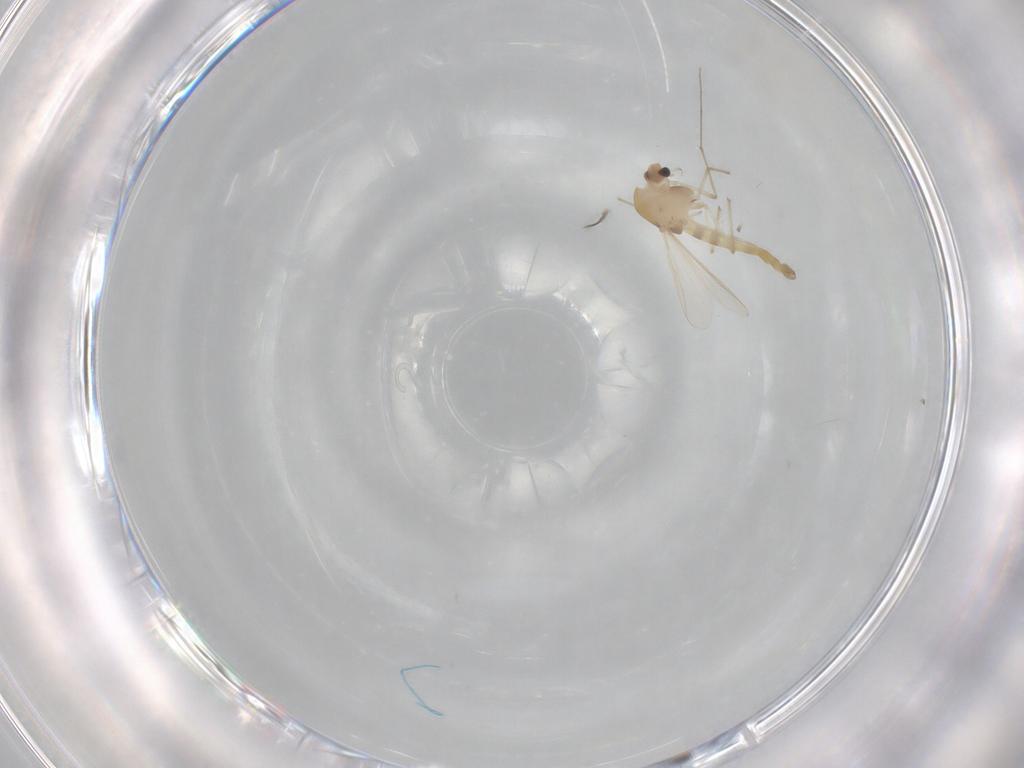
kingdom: Animalia
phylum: Arthropoda
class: Insecta
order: Diptera
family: Chironomidae
